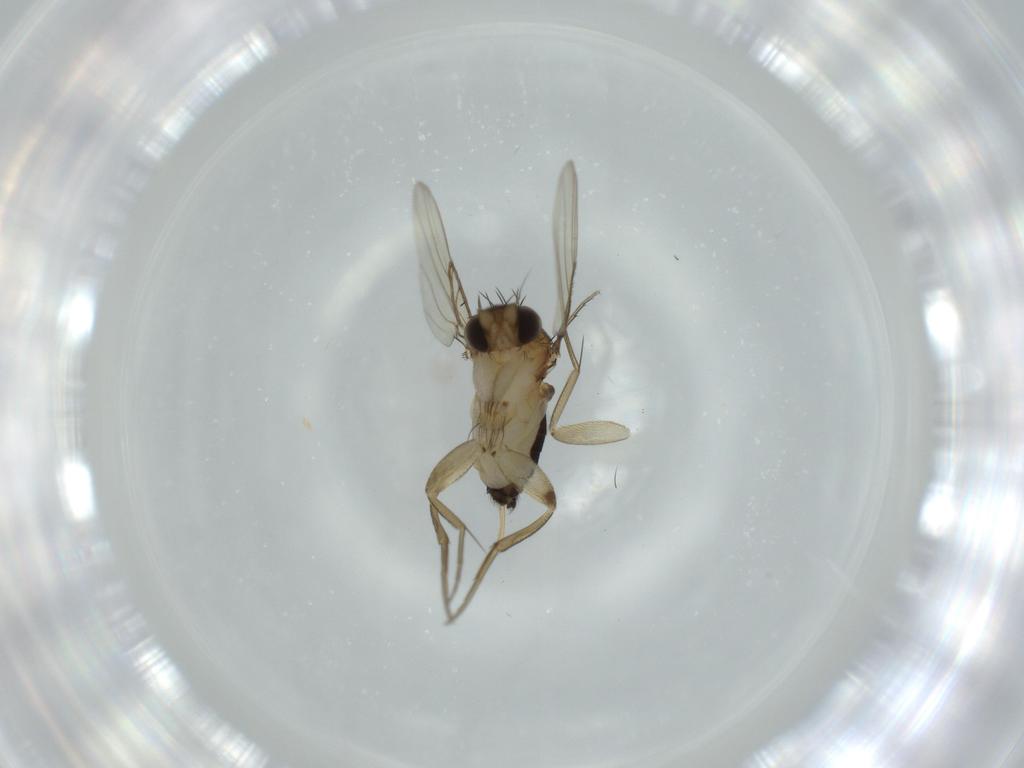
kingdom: Animalia
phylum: Arthropoda
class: Insecta
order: Diptera
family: Phoridae
